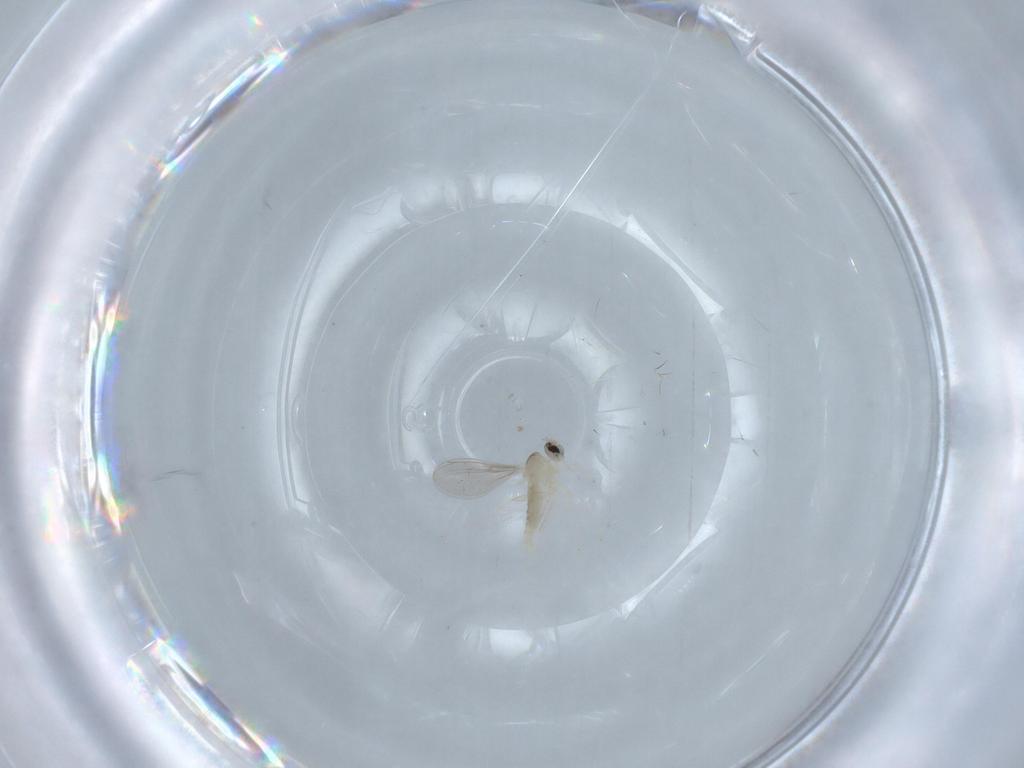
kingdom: Animalia
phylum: Arthropoda
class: Insecta
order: Diptera
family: Cecidomyiidae
